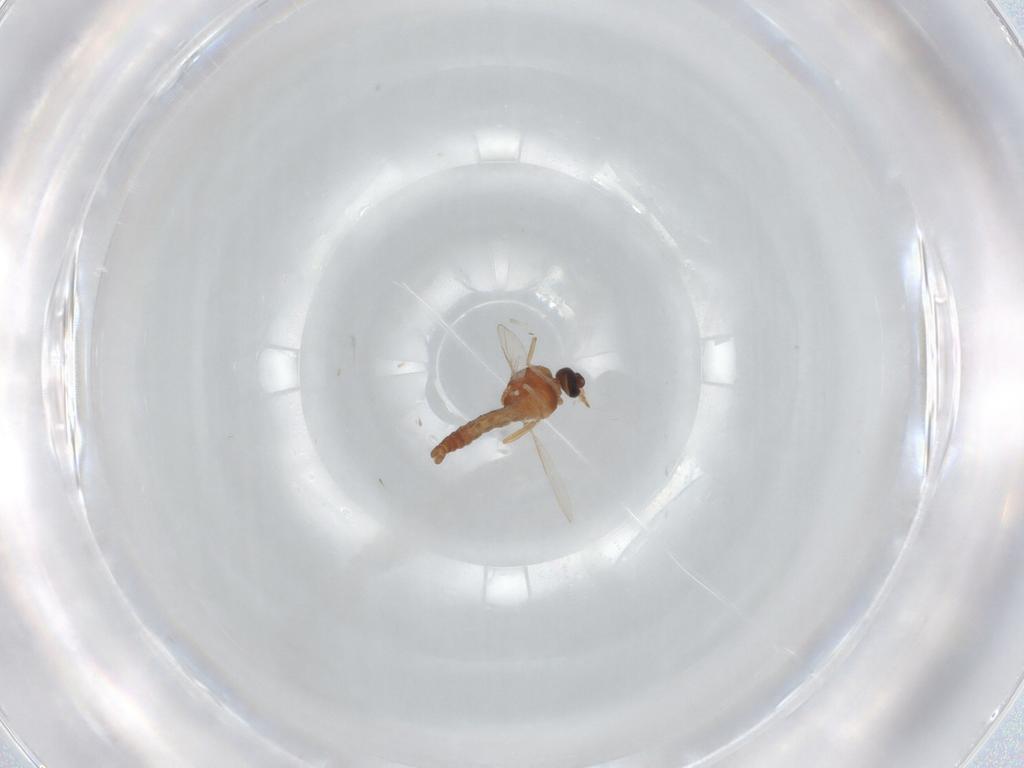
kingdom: Animalia
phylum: Arthropoda
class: Insecta
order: Diptera
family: Ceratopogonidae
